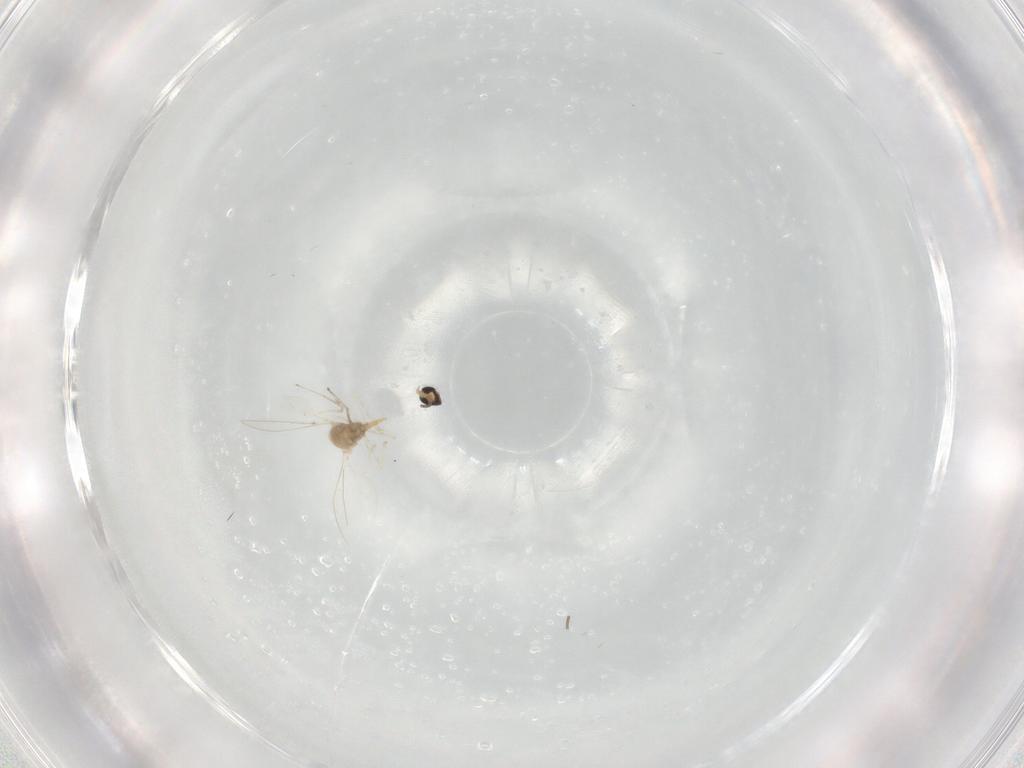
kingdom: Animalia
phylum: Arthropoda
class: Insecta
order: Diptera
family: Cecidomyiidae
